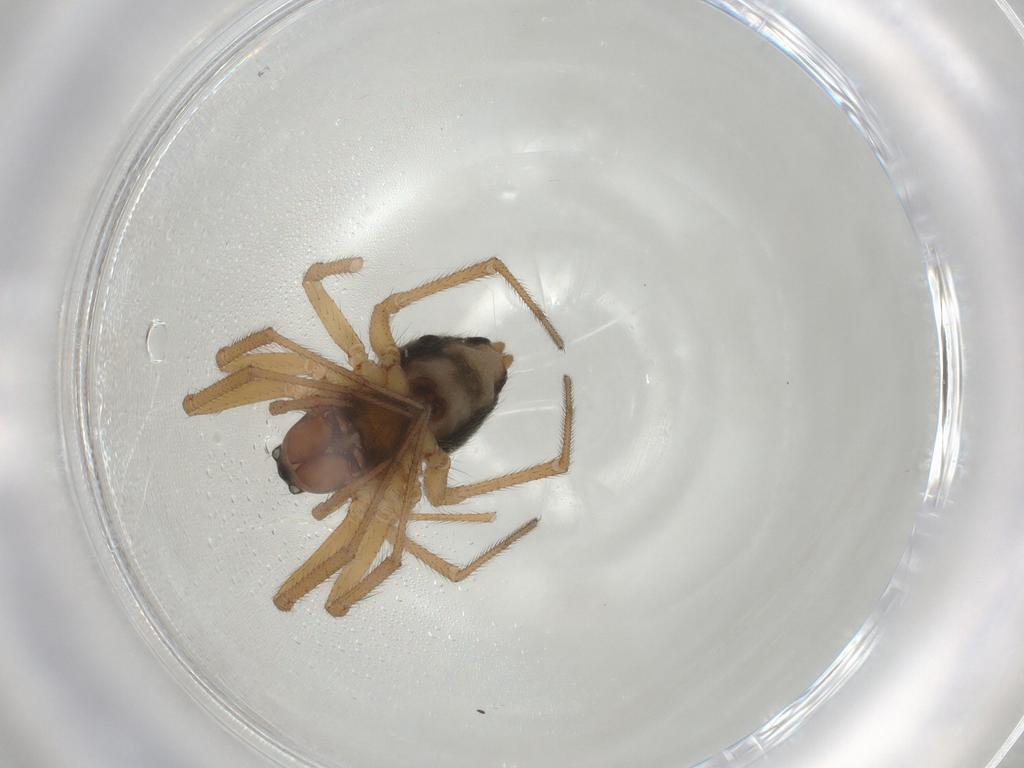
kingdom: Animalia
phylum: Arthropoda
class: Arachnida
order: Araneae
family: Linyphiidae
